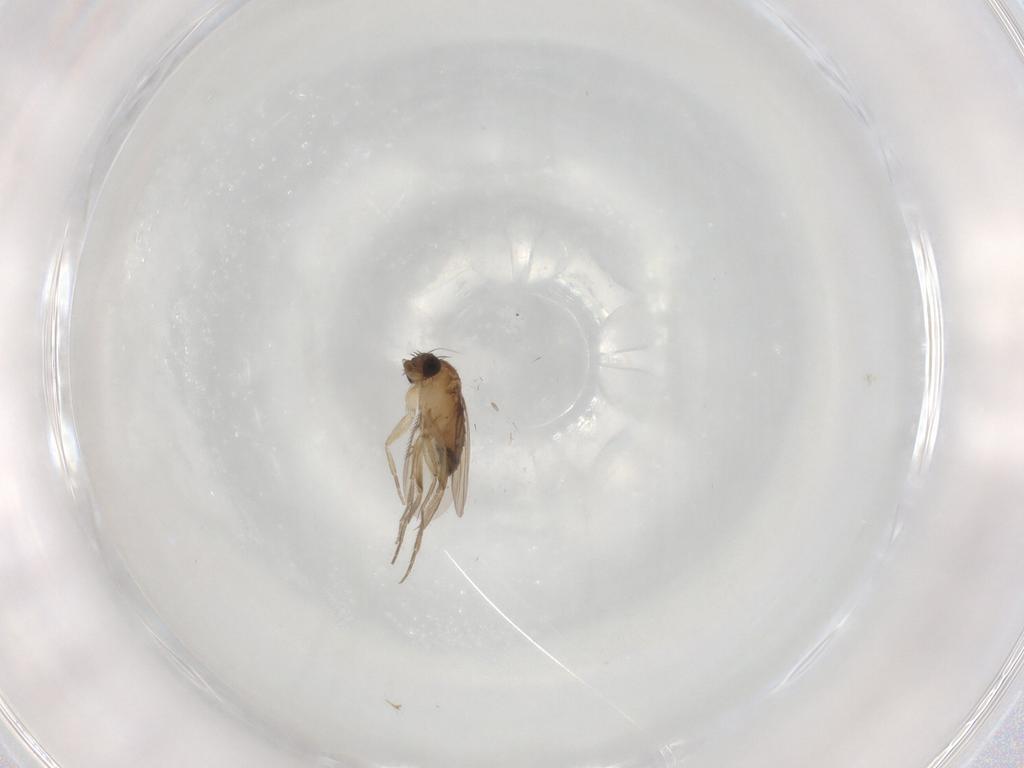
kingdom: Animalia
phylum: Arthropoda
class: Insecta
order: Diptera
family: Phoridae
